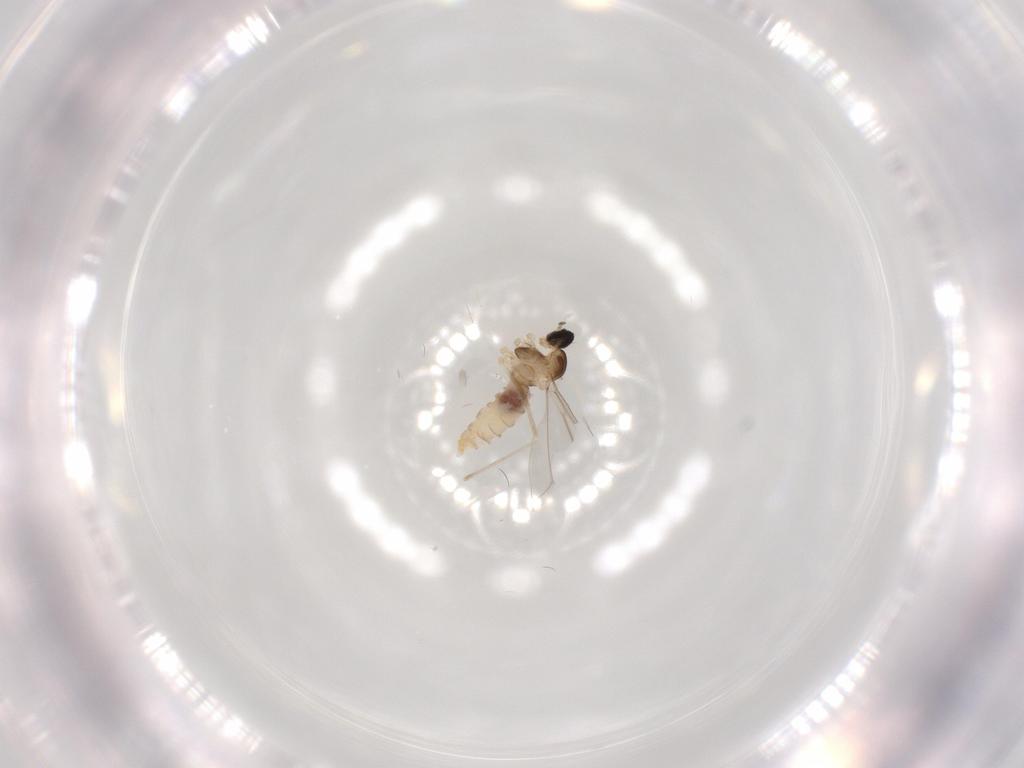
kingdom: Animalia
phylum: Arthropoda
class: Insecta
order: Diptera
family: Mycetophilidae
